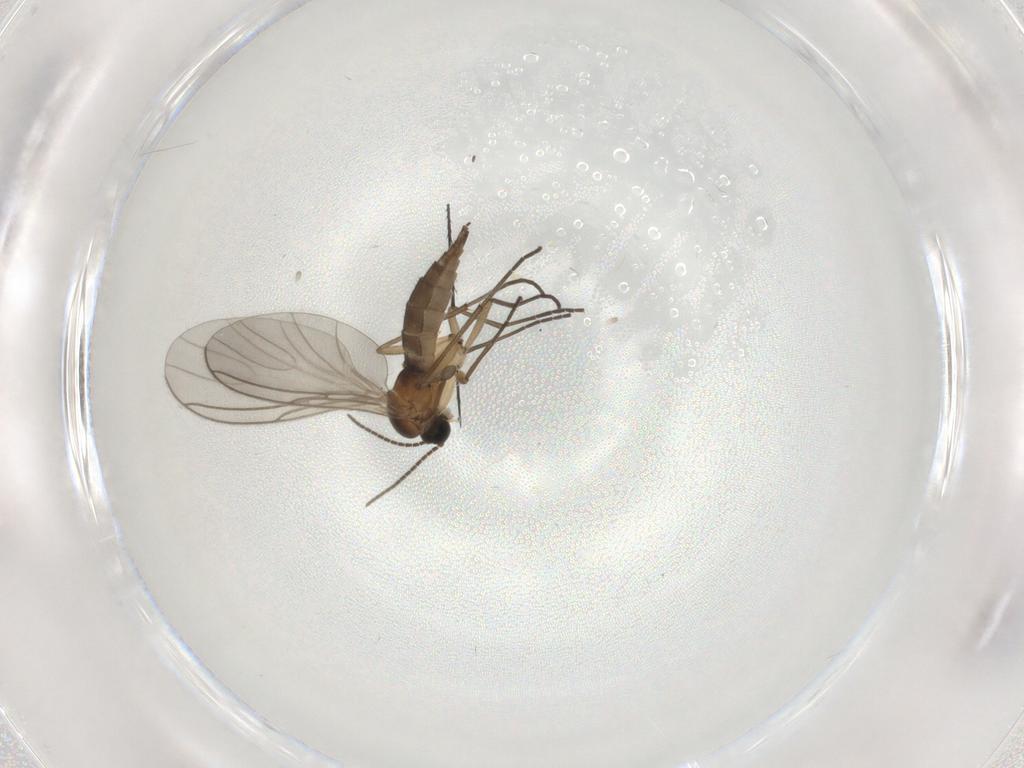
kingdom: Animalia
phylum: Arthropoda
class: Insecta
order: Diptera
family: Sciaridae
